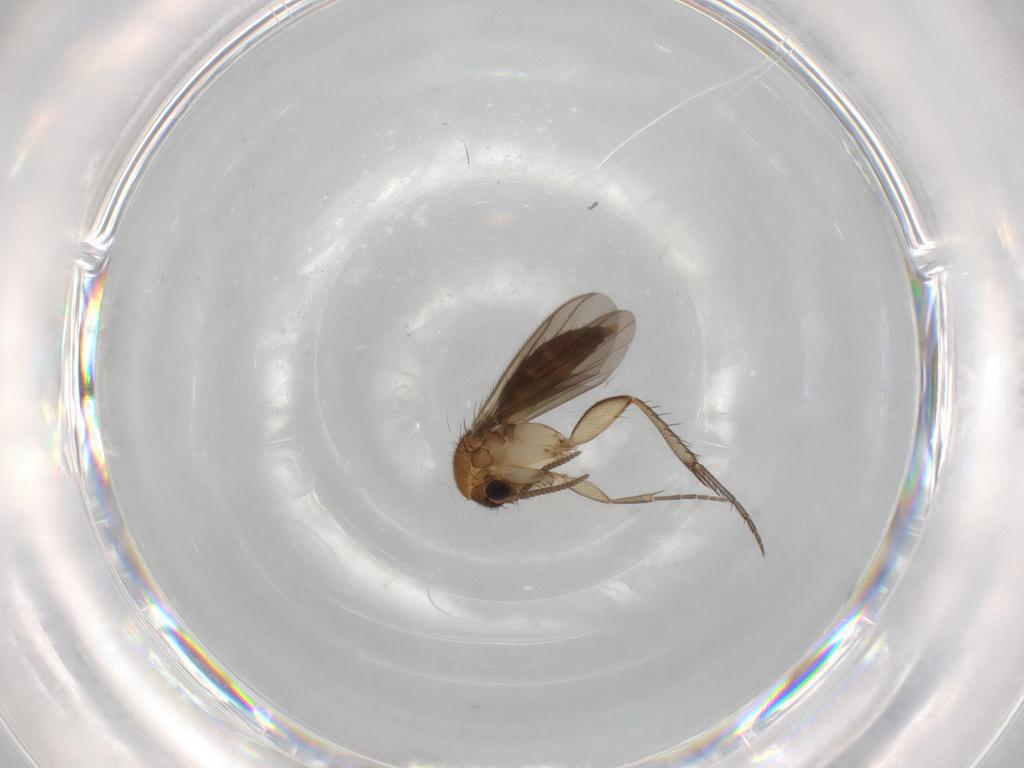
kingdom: Animalia
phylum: Arthropoda
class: Insecta
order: Diptera
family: Mycetophilidae
